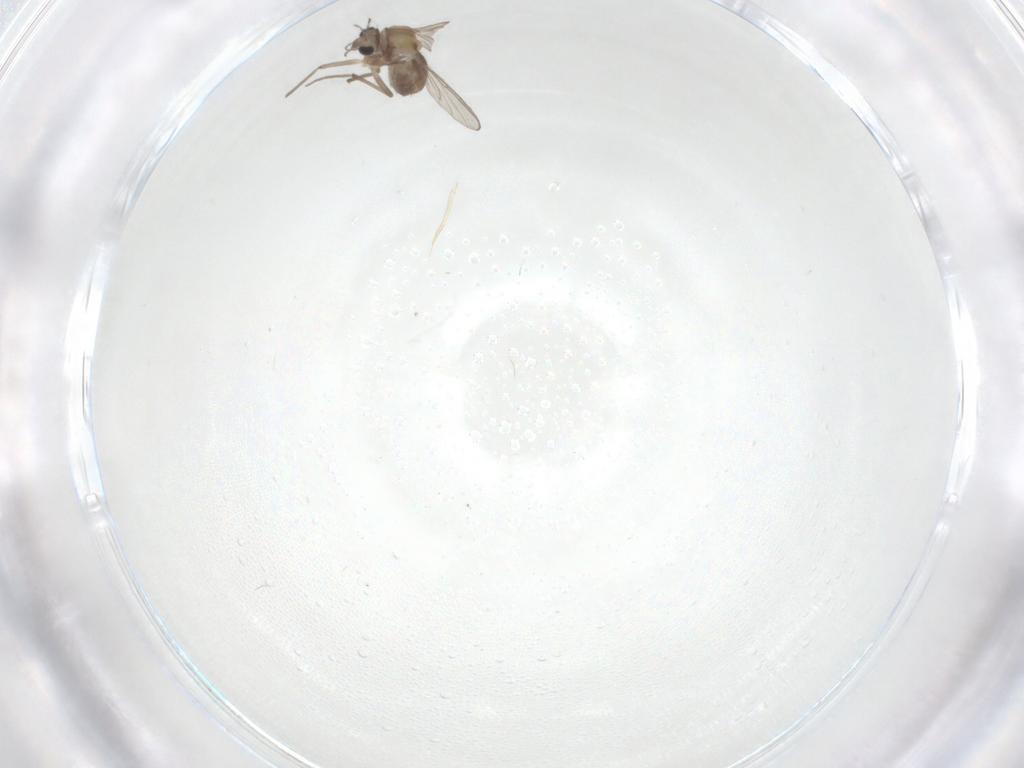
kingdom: Animalia
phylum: Arthropoda
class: Insecta
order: Diptera
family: Chironomidae
